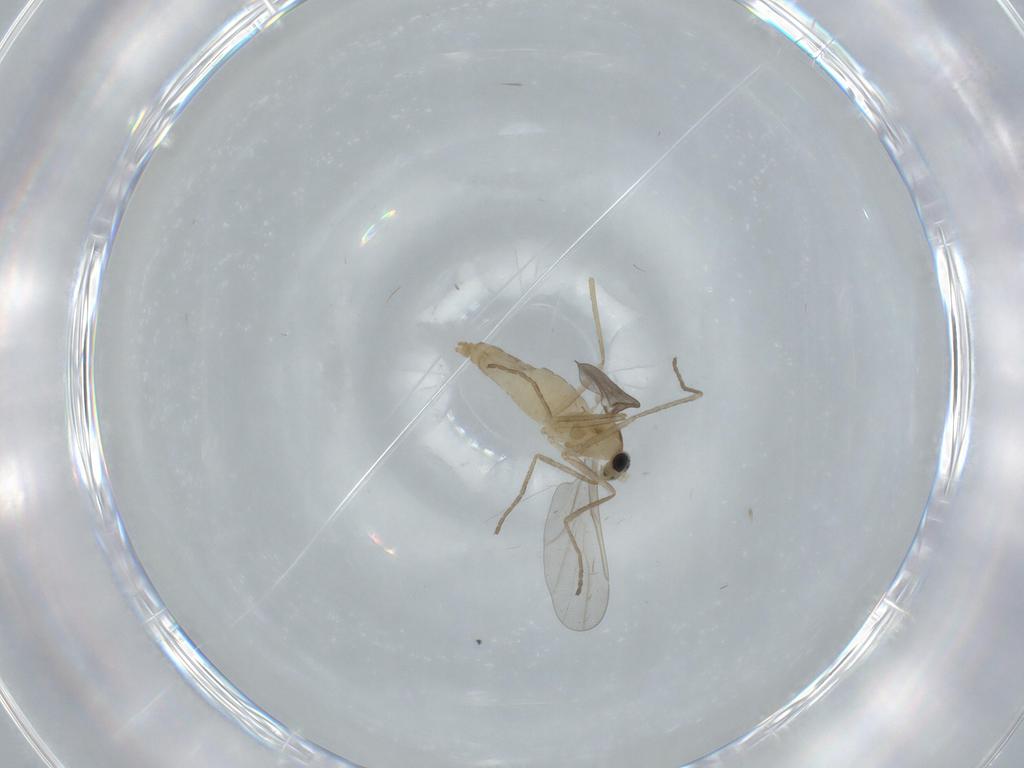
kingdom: Animalia
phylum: Arthropoda
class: Insecta
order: Diptera
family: Cecidomyiidae
